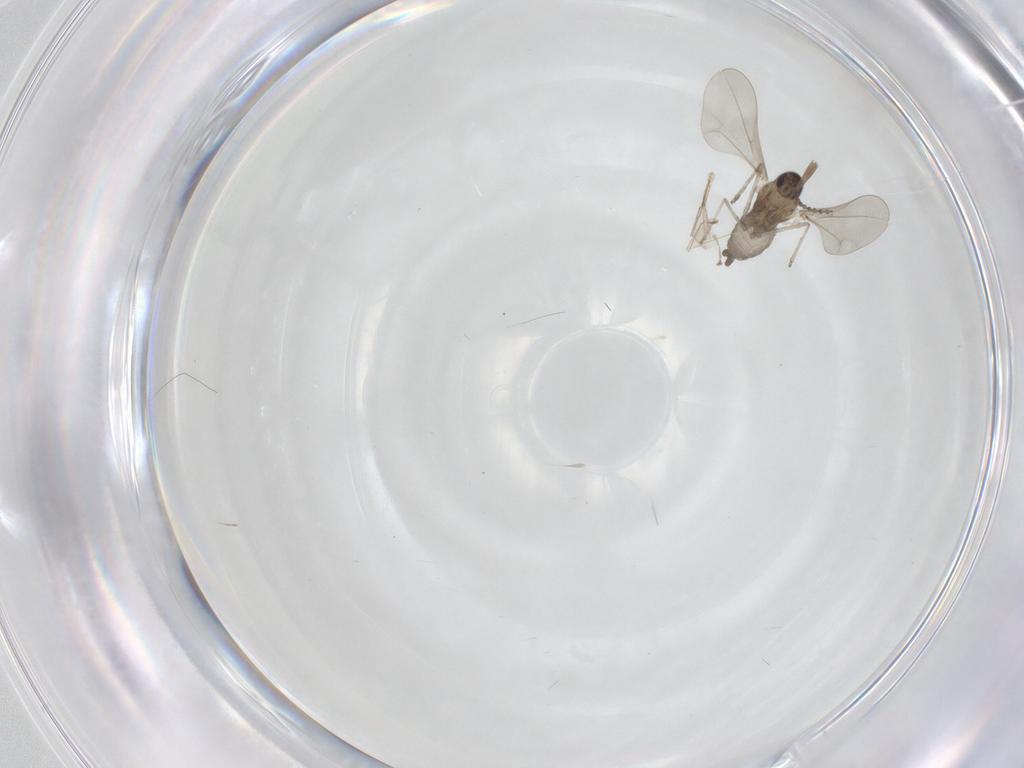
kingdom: Animalia
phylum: Arthropoda
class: Insecta
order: Diptera
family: Cecidomyiidae
